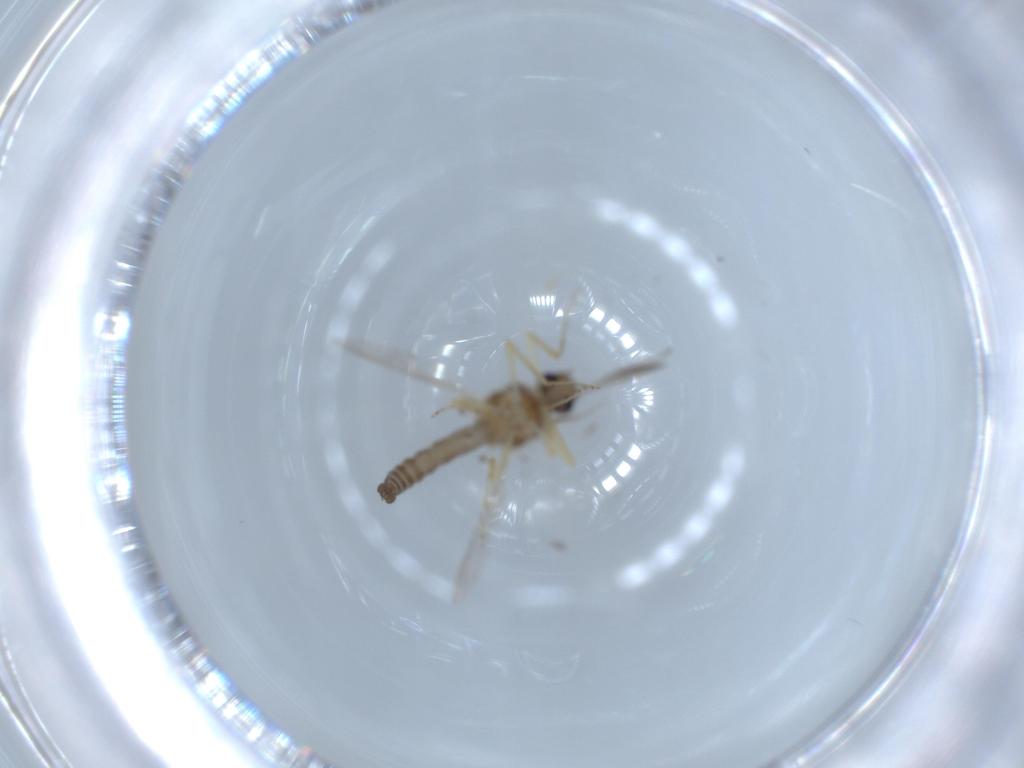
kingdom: Animalia
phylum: Arthropoda
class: Insecta
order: Diptera
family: Ceratopogonidae
